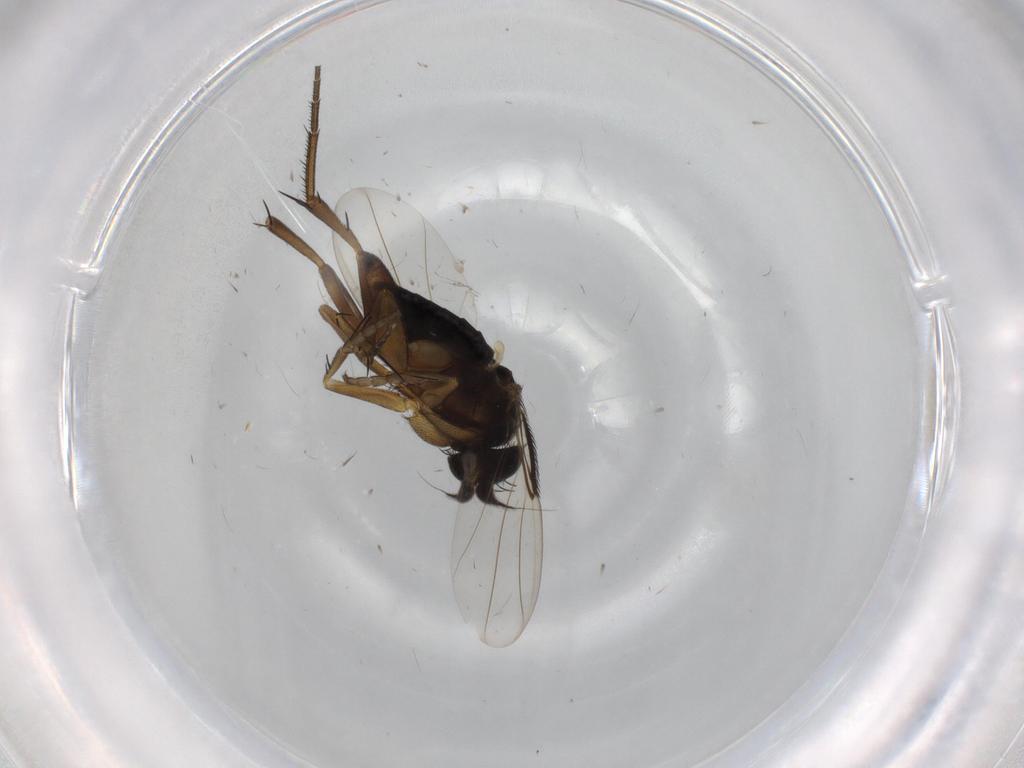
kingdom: Animalia
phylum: Arthropoda
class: Insecta
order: Diptera
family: Phoridae
